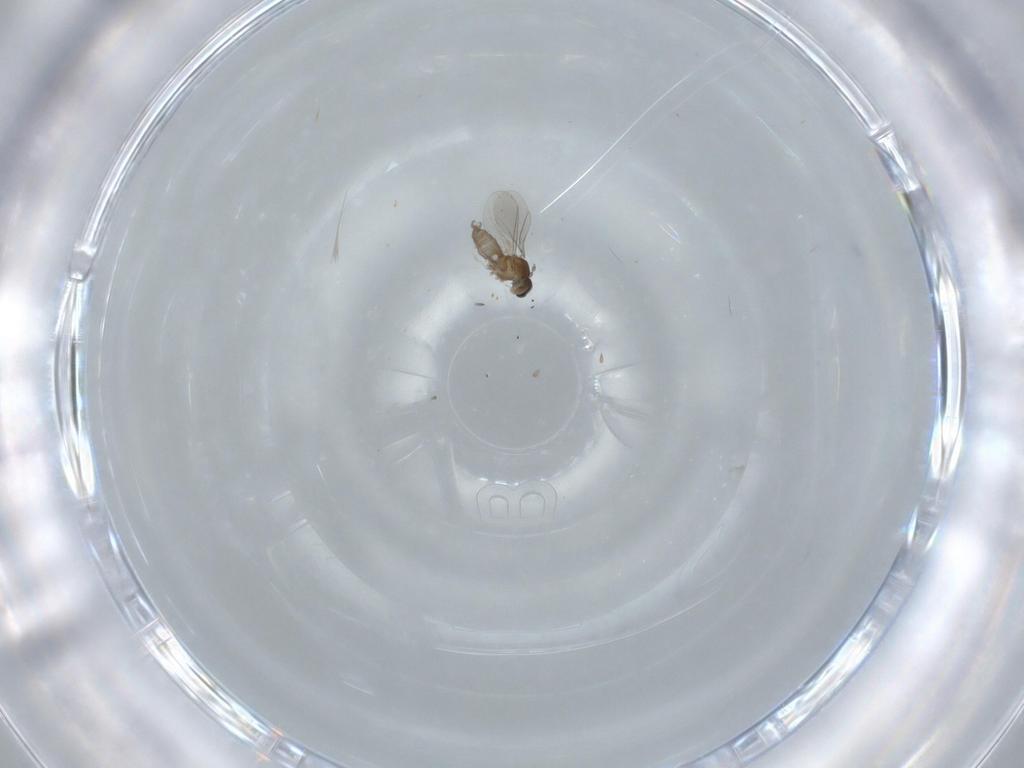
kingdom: Animalia
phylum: Arthropoda
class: Insecta
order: Diptera
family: Cecidomyiidae
